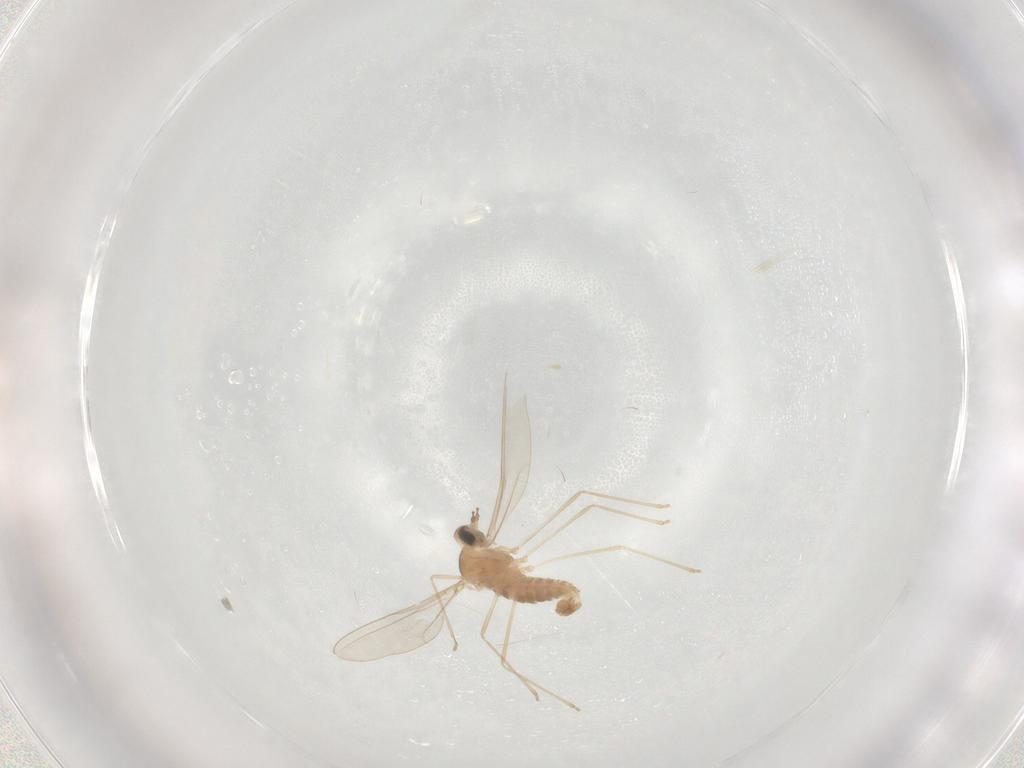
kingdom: Animalia
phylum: Arthropoda
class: Insecta
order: Diptera
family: Cecidomyiidae
